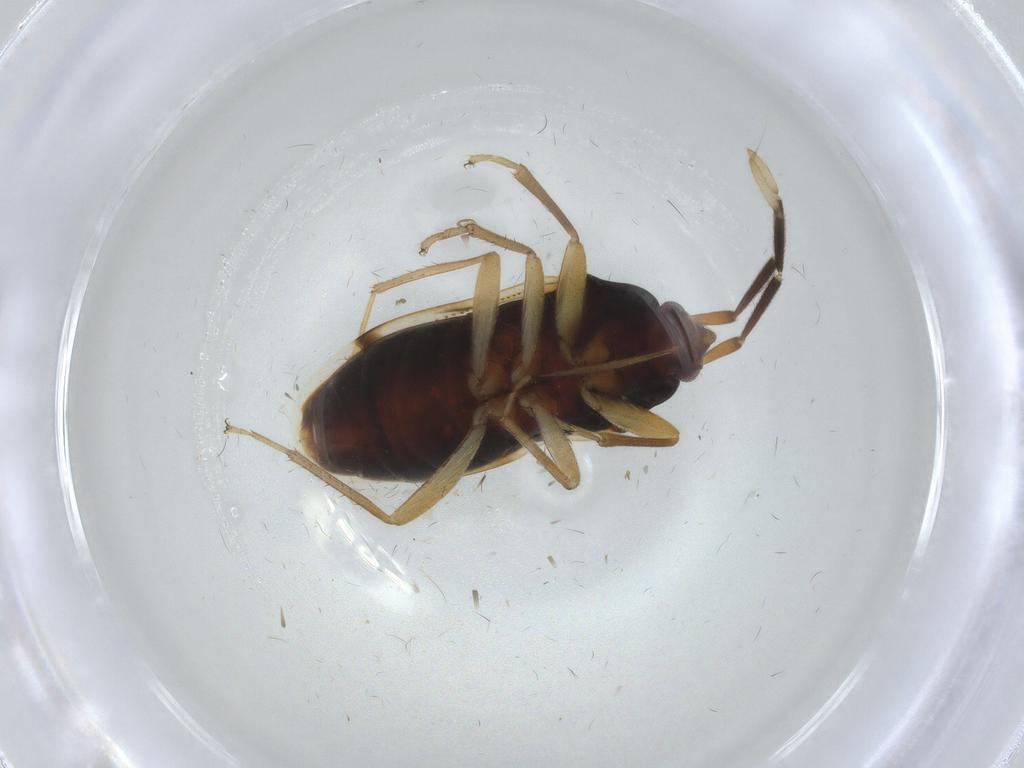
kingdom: Animalia
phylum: Arthropoda
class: Insecta
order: Hemiptera
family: Rhyparochromidae
